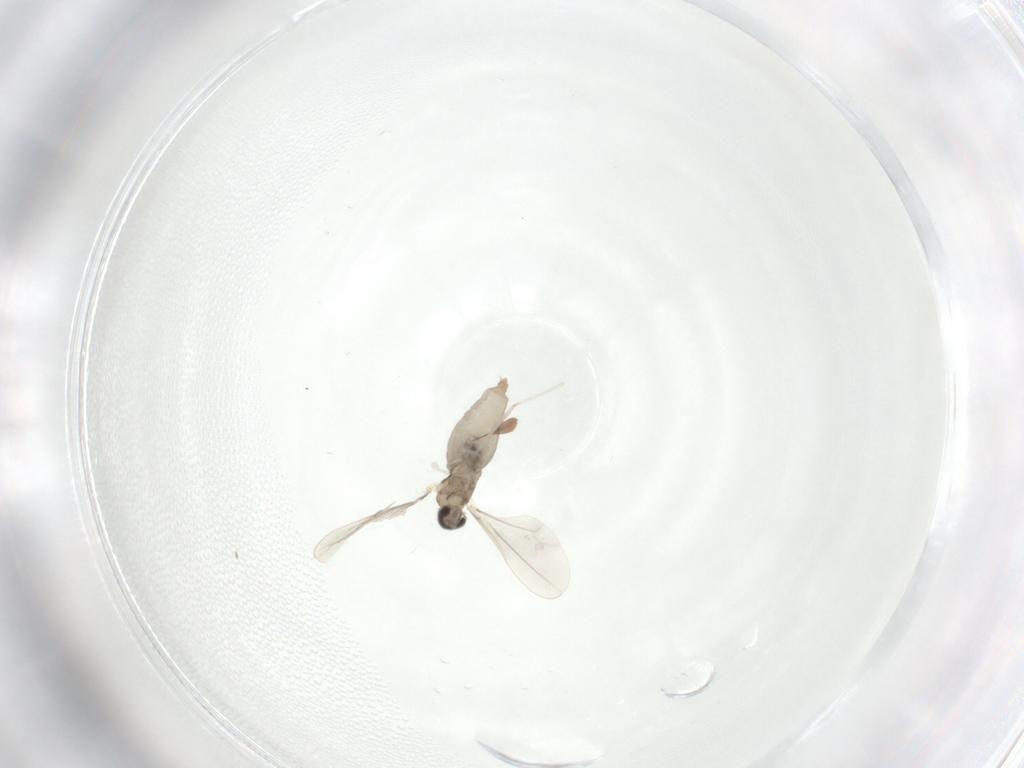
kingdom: Animalia
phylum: Arthropoda
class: Insecta
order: Diptera
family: Cecidomyiidae
